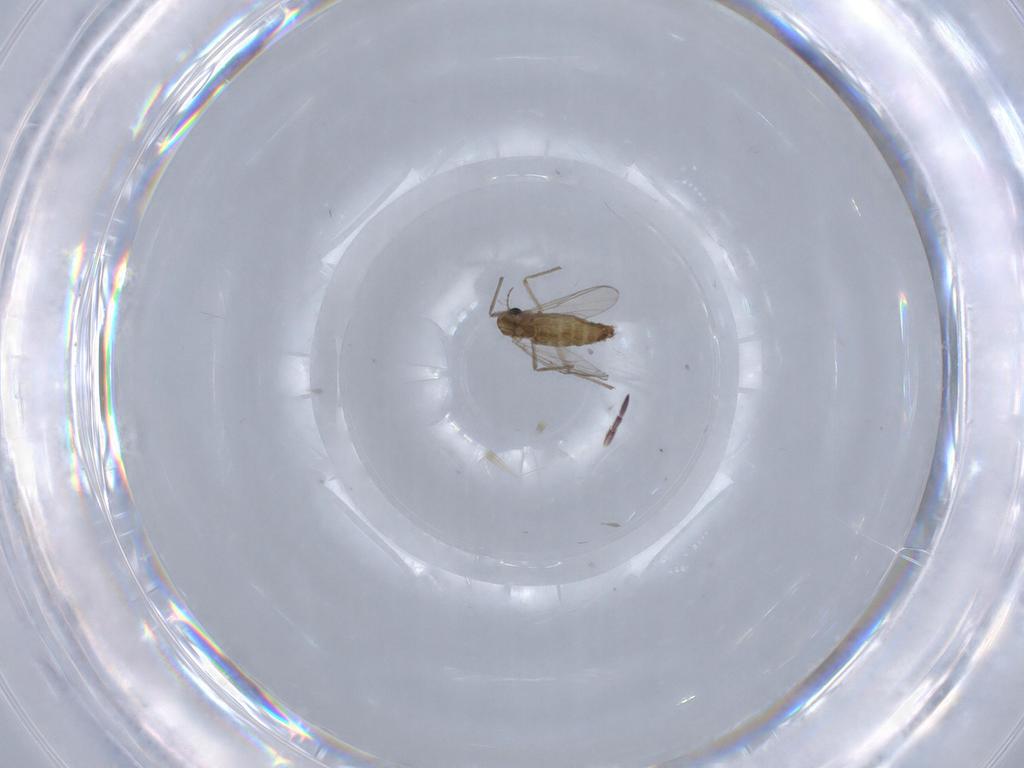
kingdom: Animalia
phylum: Arthropoda
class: Insecta
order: Diptera
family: Chironomidae
